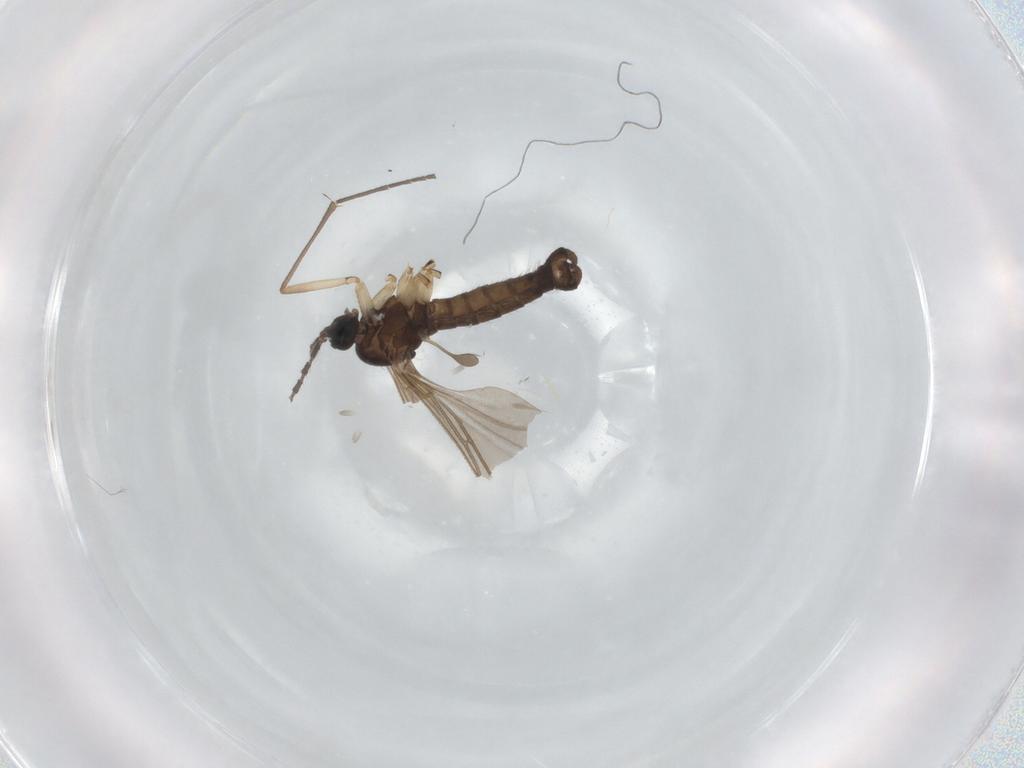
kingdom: Animalia
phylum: Arthropoda
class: Insecta
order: Diptera
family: Sciaridae
